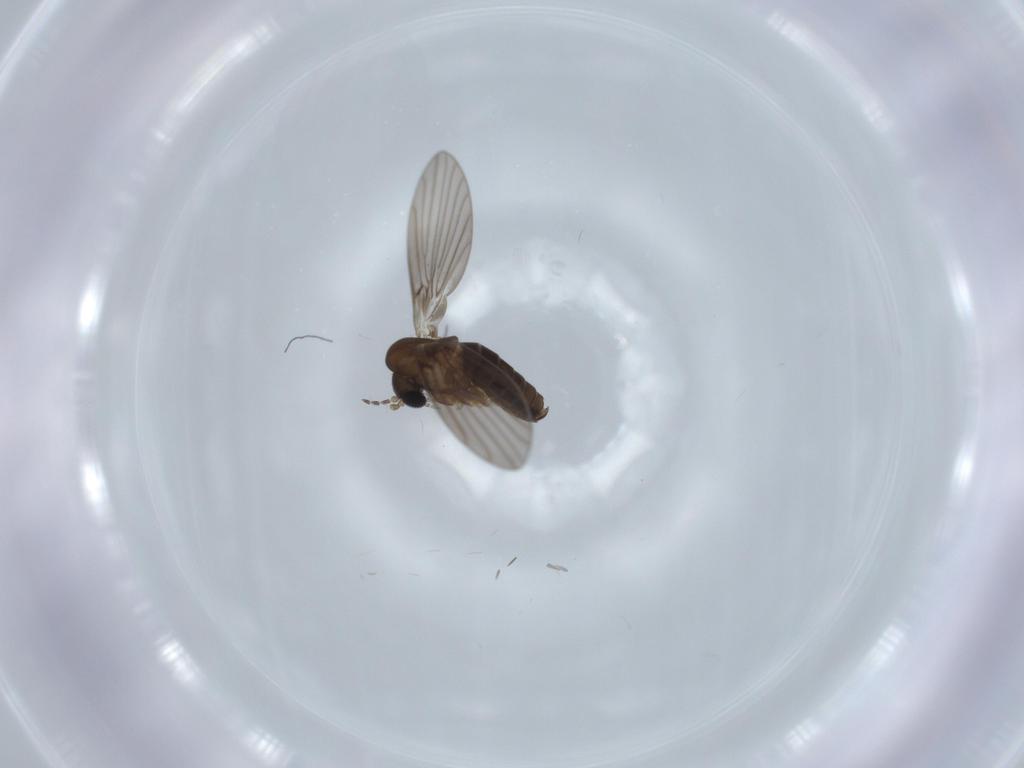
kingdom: Animalia
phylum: Arthropoda
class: Insecta
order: Diptera
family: Psychodidae
